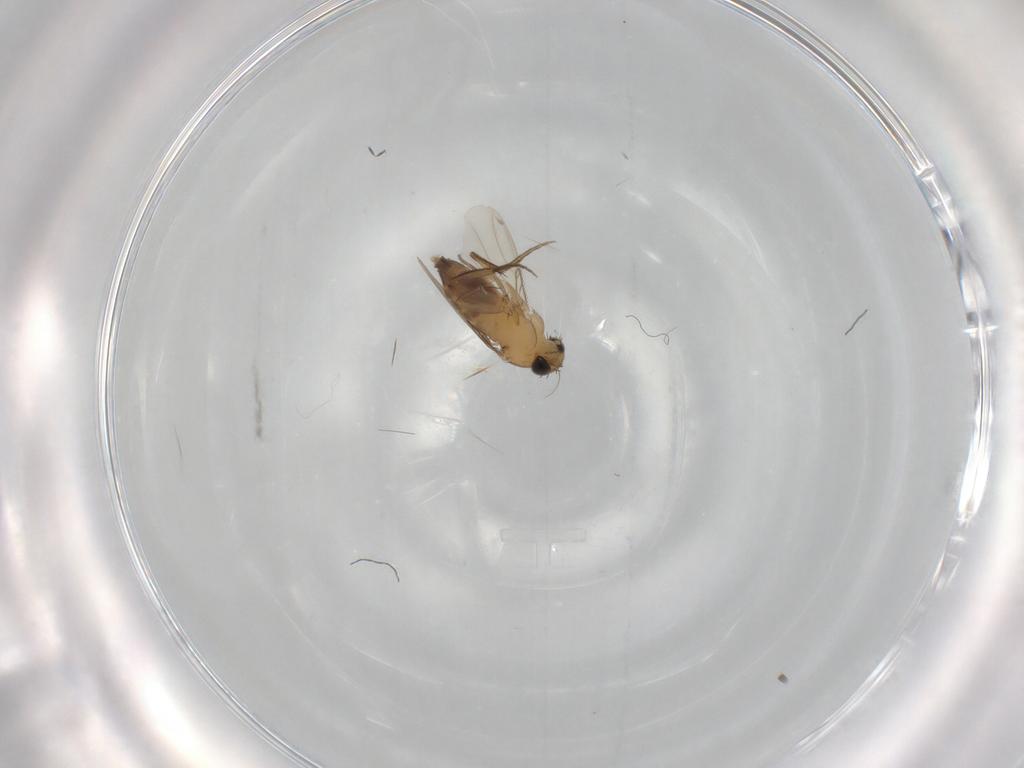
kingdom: Animalia
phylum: Arthropoda
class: Insecta
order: Diptera
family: Phoridae
